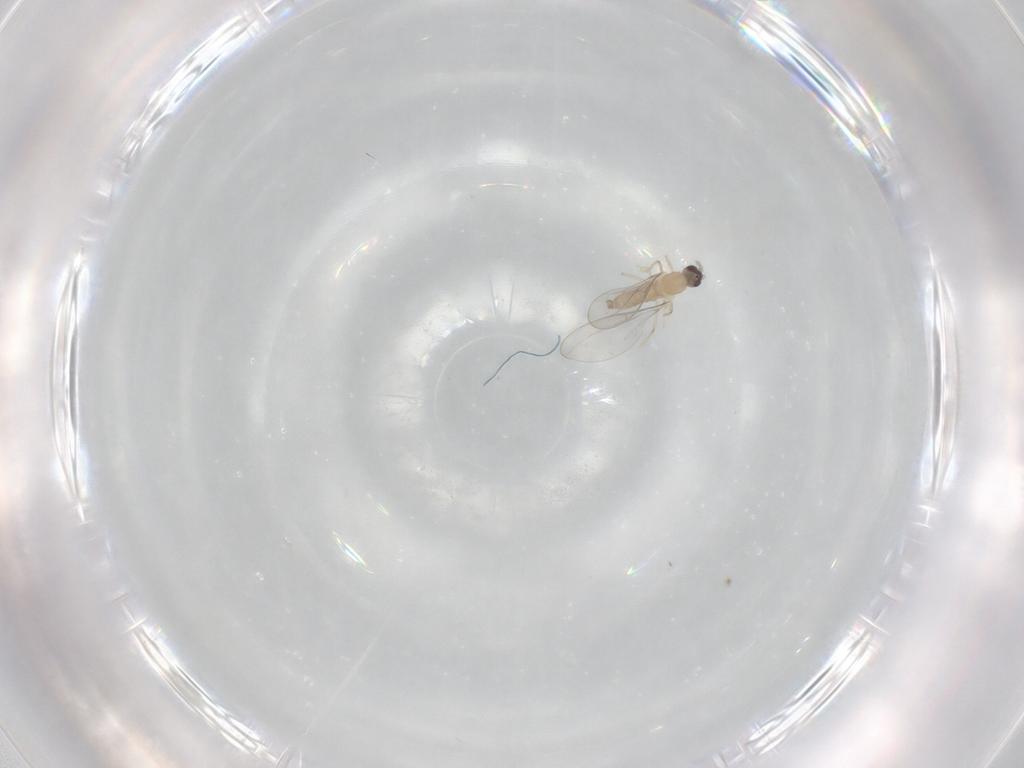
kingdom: Animalia
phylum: Arthropoda
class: Insecta
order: Diptera
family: Cecidomyiidae
